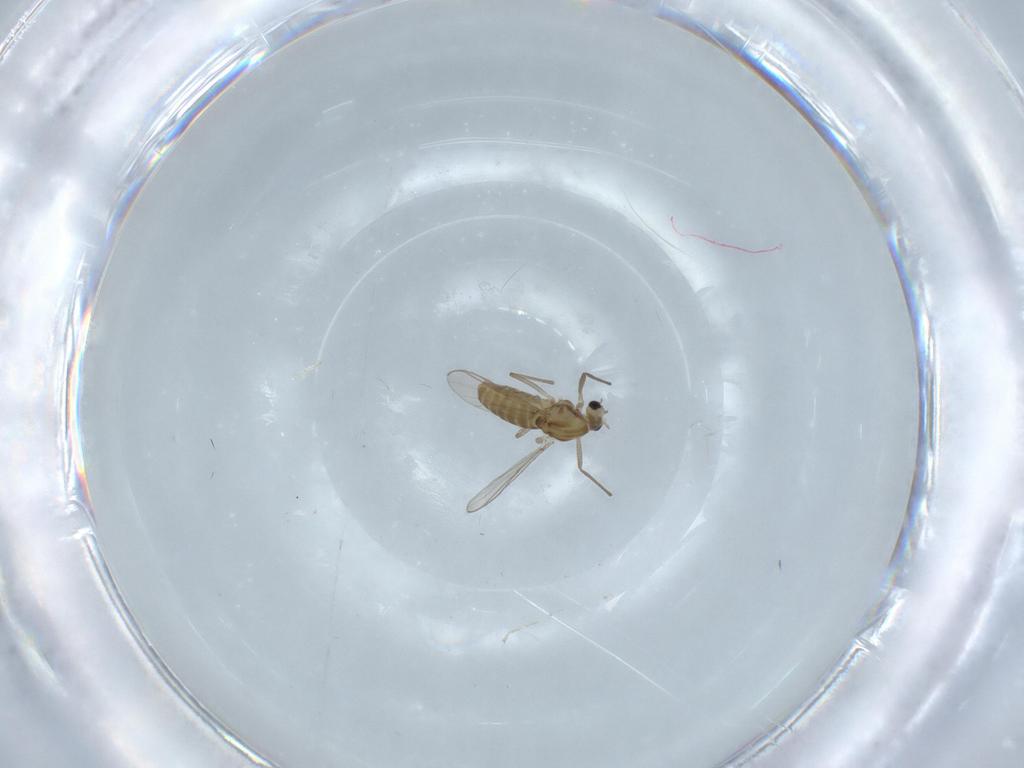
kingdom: Animalia
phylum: Arthropoda
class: Insecta
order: Diptera
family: Chironomidae
